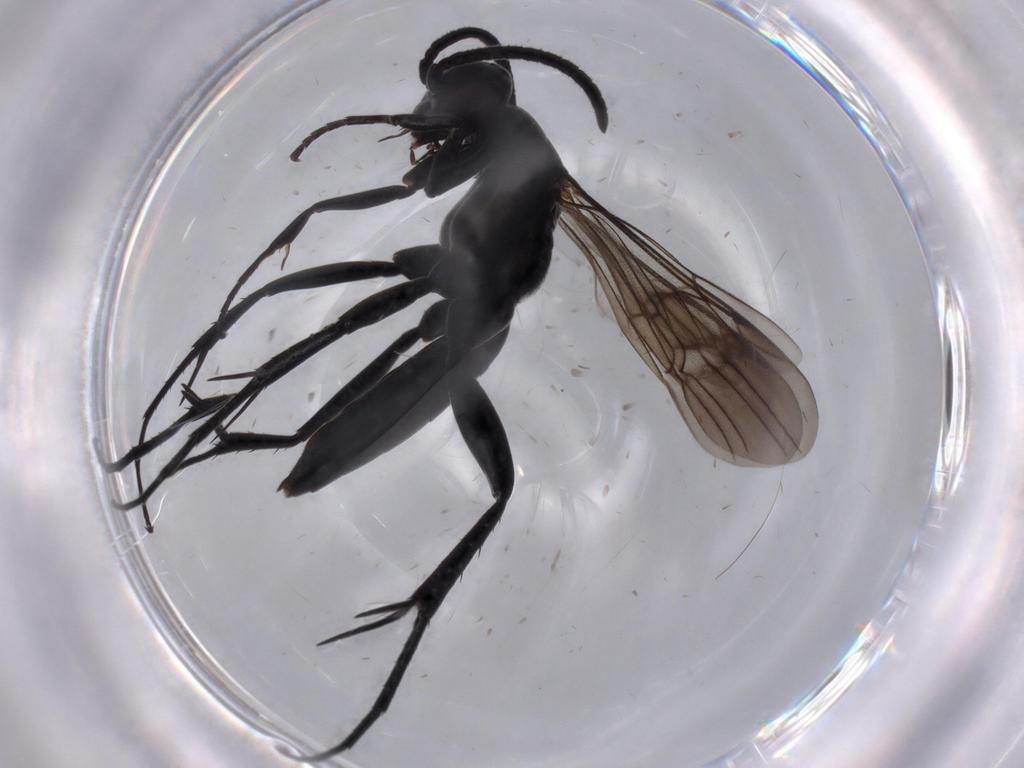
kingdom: Animalia
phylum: Arthropoda
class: Insecta
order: Hymenoptera
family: Pompilidae
